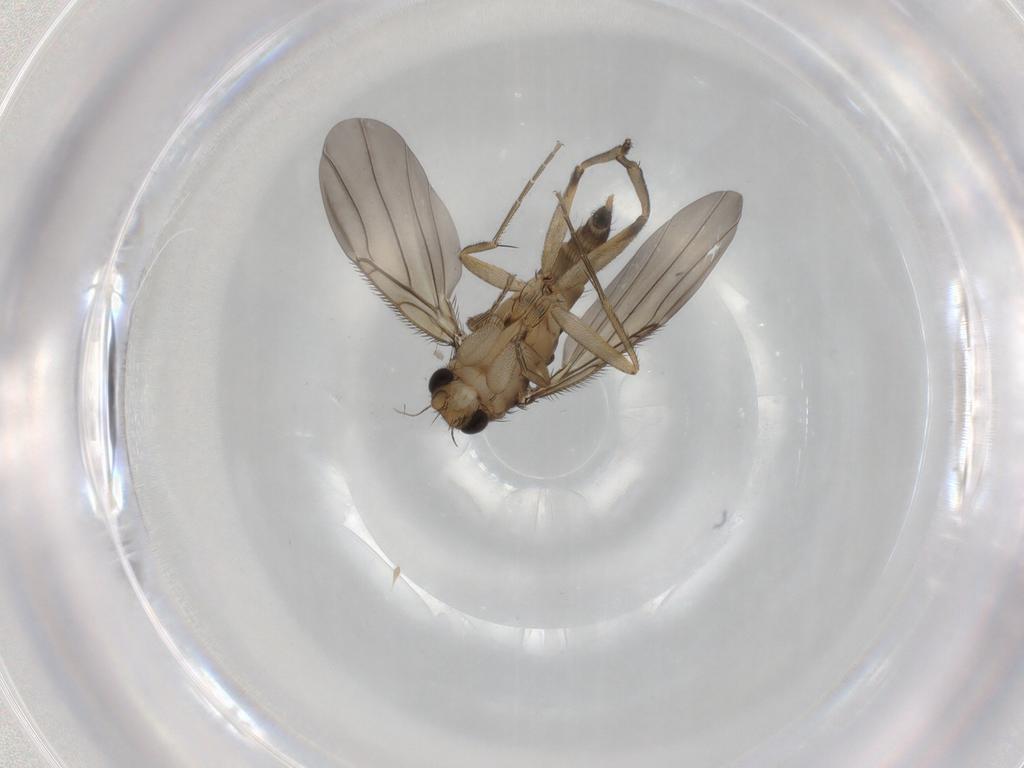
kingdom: Animalia
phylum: Arthropoda
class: Insecta
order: Diptera
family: Phoridae
